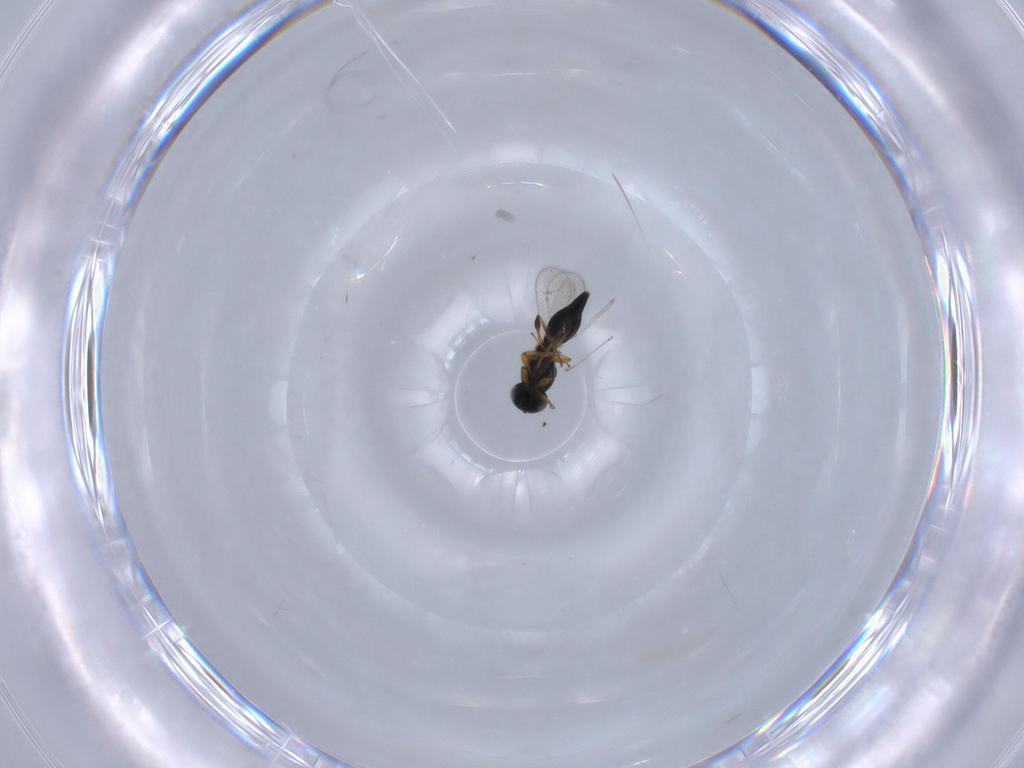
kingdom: Animalia
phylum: Arthropoda
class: Insecta
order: Hymenoptera
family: Platygastridae
